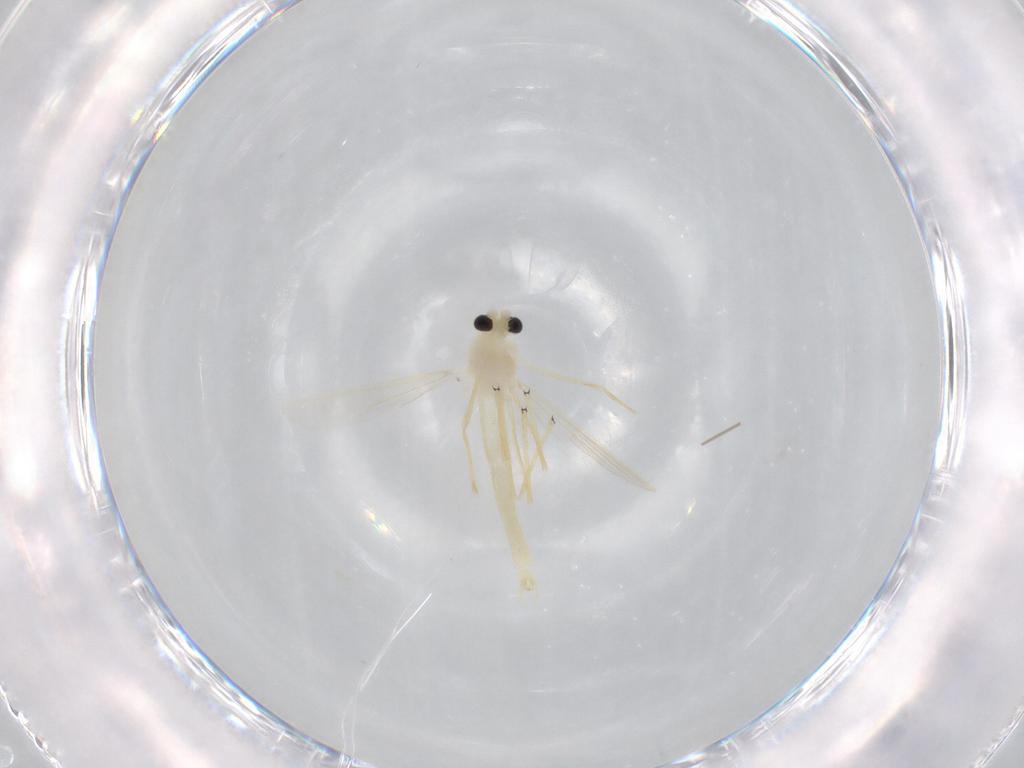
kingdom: Animalia
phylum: Arthropoda
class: Insecta
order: Diptera
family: Chironomidae
